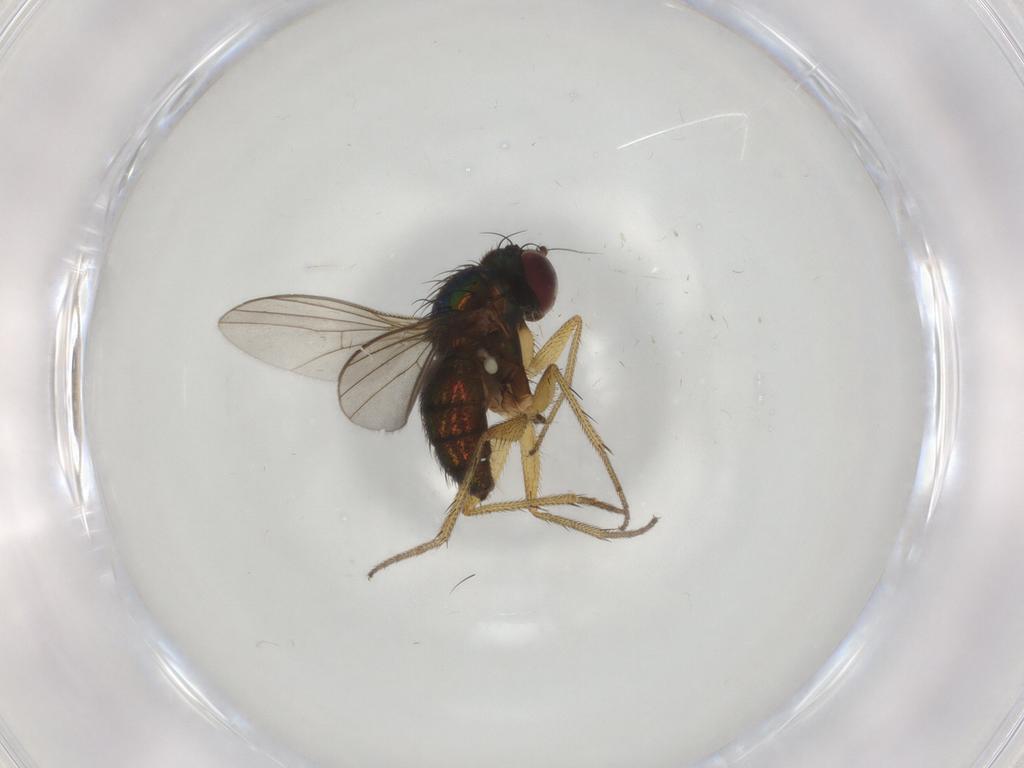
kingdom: Animalia
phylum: Arthropoda
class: Insecta
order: Diptera
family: Dolichopodidae
